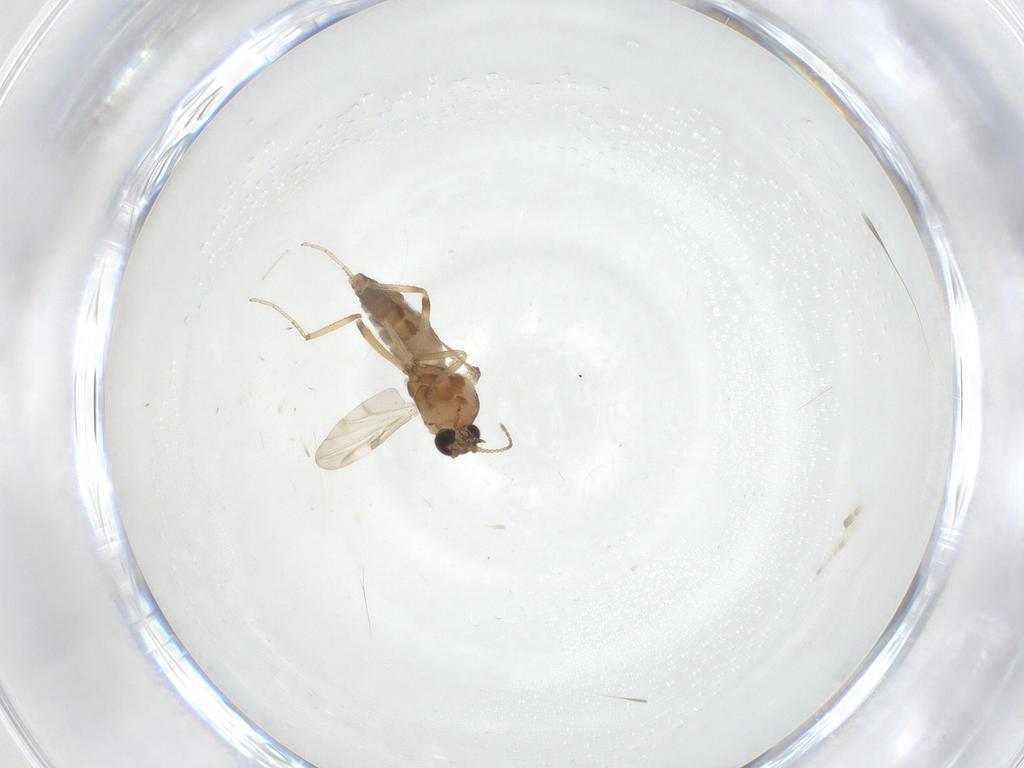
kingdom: Animalia
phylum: Arthropoda
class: Insecta
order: Diptera
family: Ceratopogonidae
